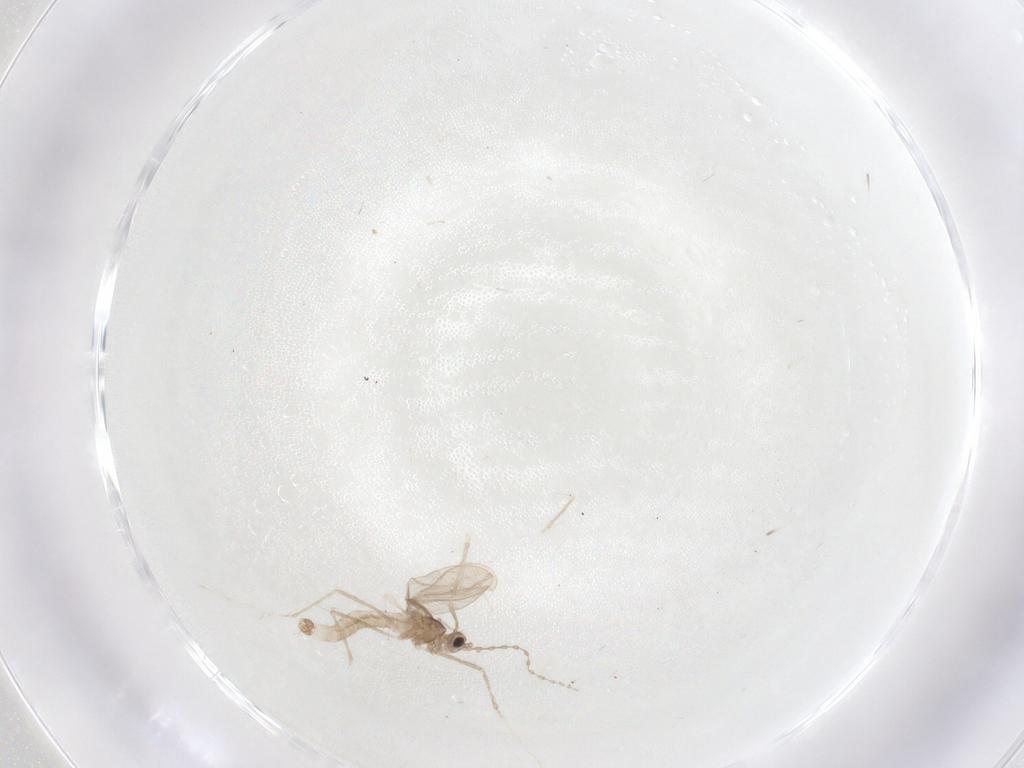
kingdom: Animalia
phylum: Arthropoda
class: Insecta
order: Diptera
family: Cecidomyiidae
